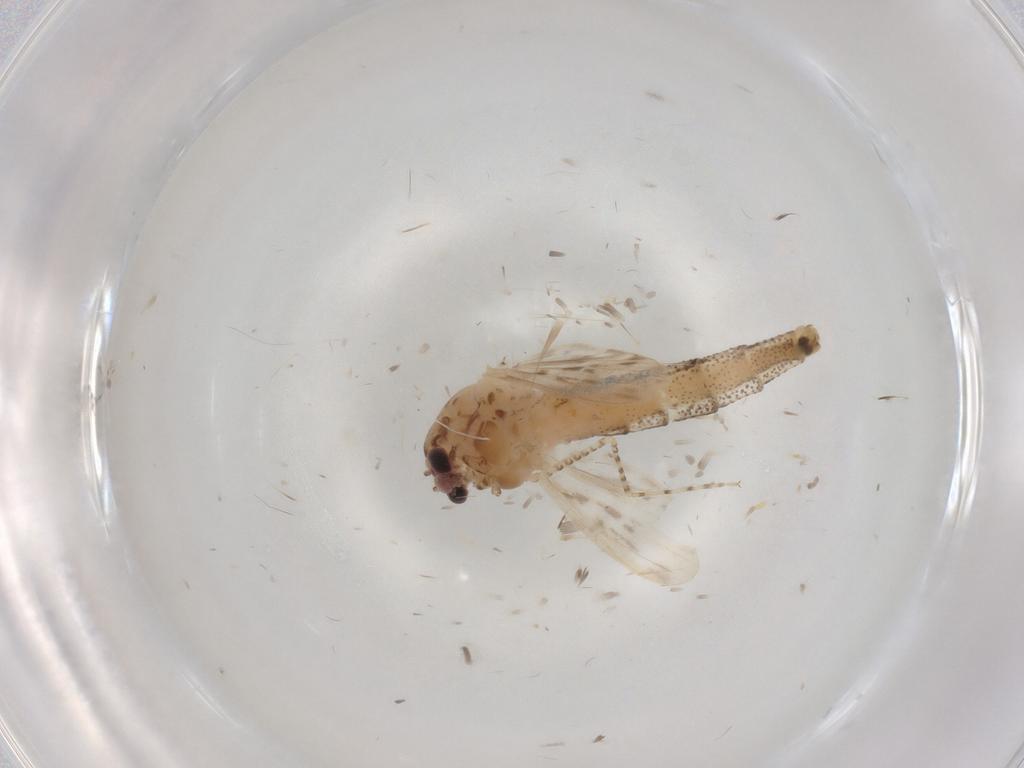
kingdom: Animalia
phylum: Arthropoda
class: Insecta
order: Diptera
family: Chaoboridae
